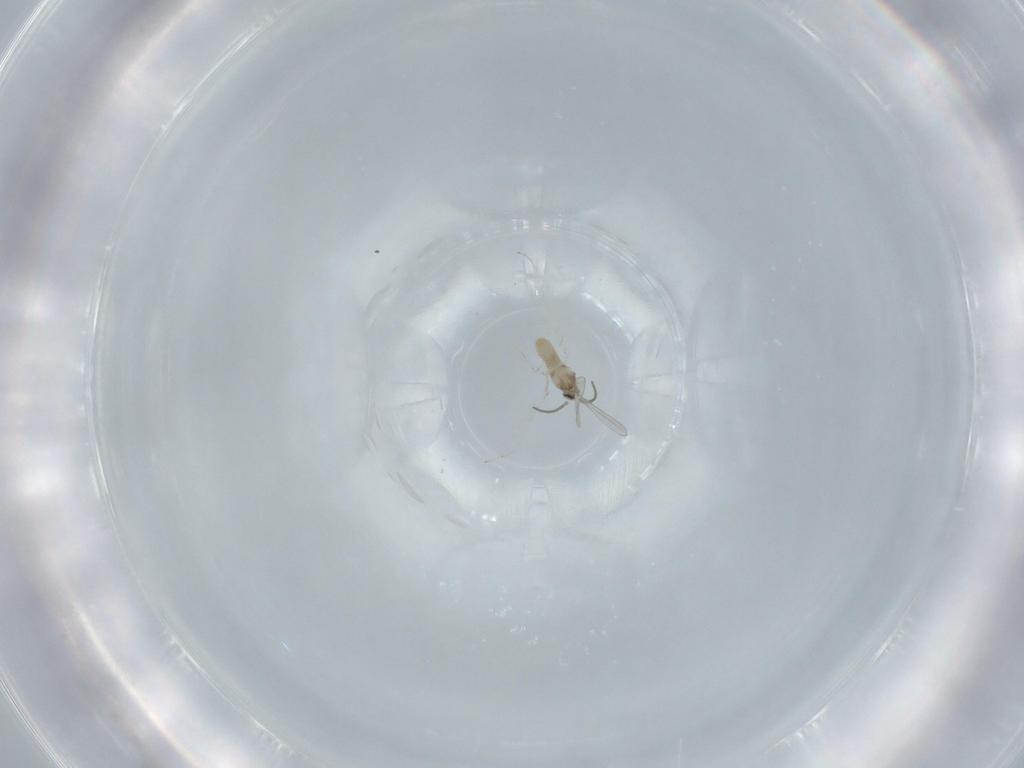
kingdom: Animalia
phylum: Arthropoda
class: Insecta
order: Diptera
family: Cecidomyiidae
